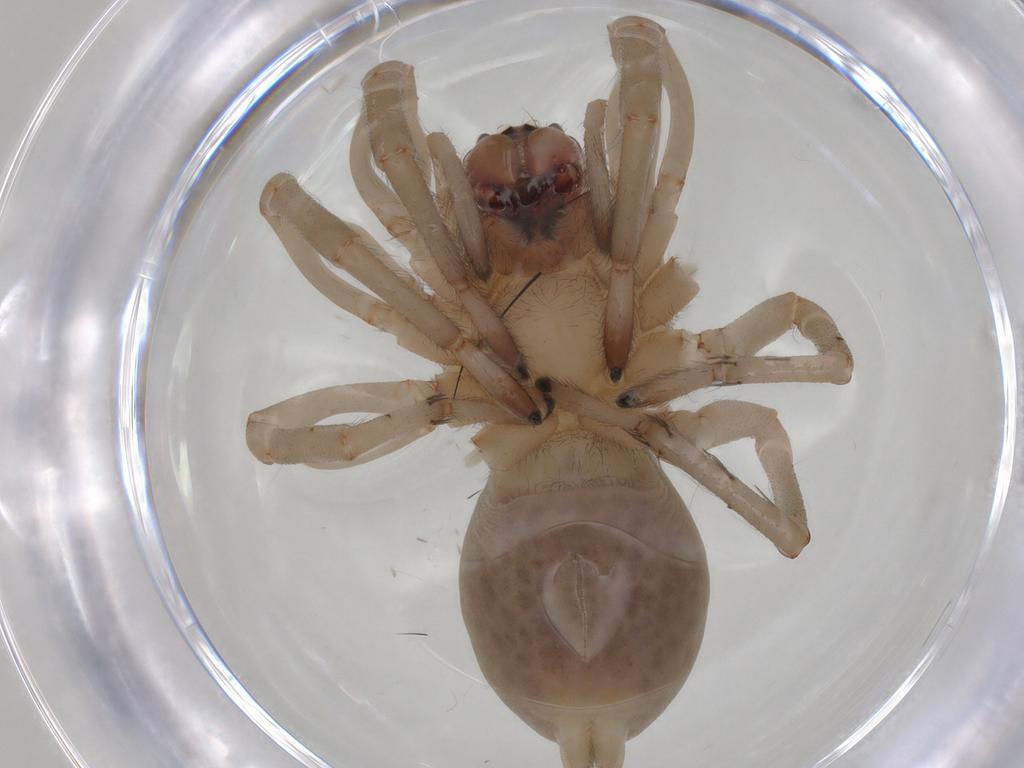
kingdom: Animalia
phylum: Arthropoda
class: Arachnida
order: Araneae
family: Cheiracanthiidae
